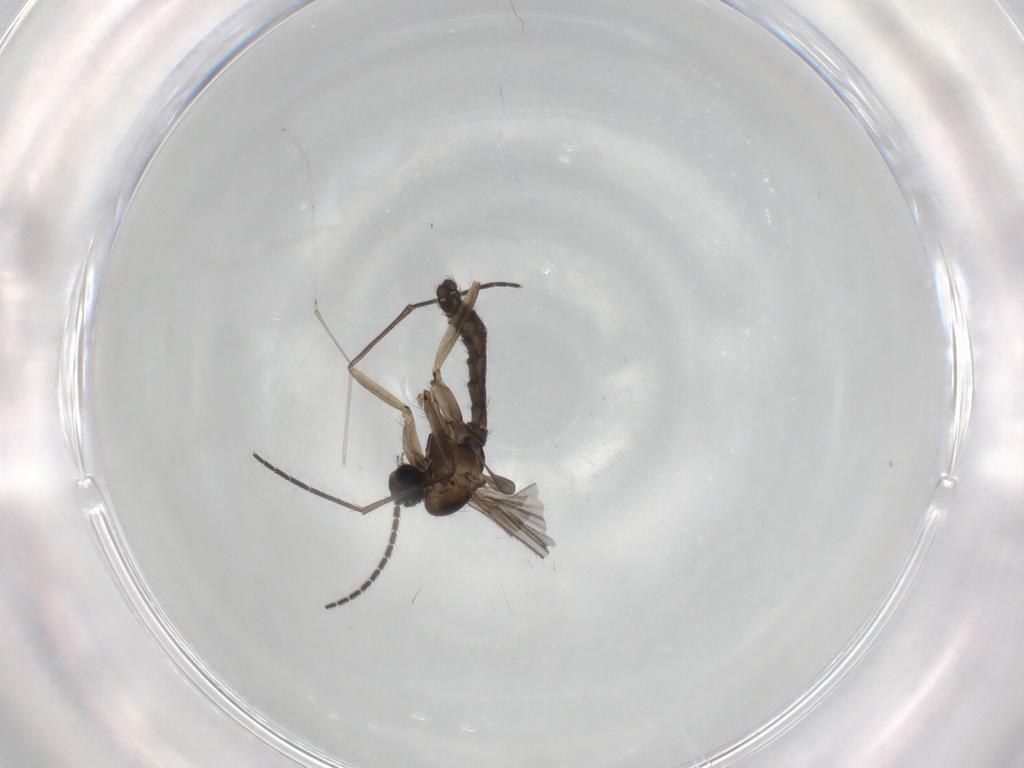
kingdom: Animalia
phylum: Arthropoda
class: Insecta
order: Diptera
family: Sciaridae
